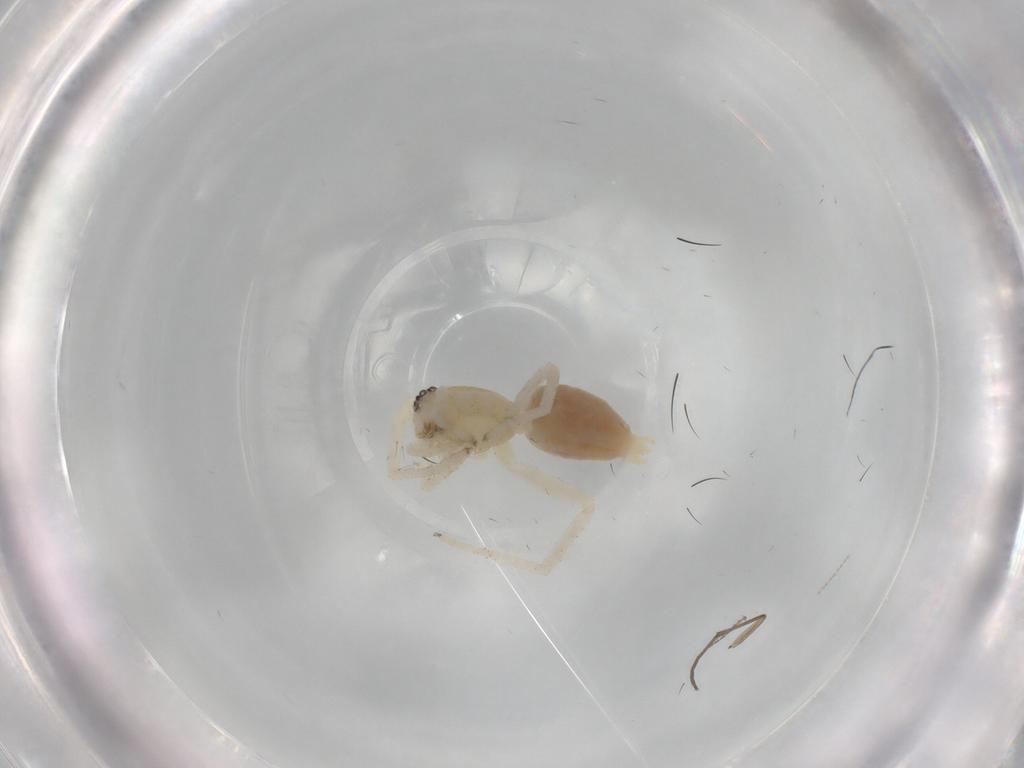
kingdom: Animalia
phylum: Arthropoda
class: Arachnida
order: Araneae
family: Anyphaenidae
